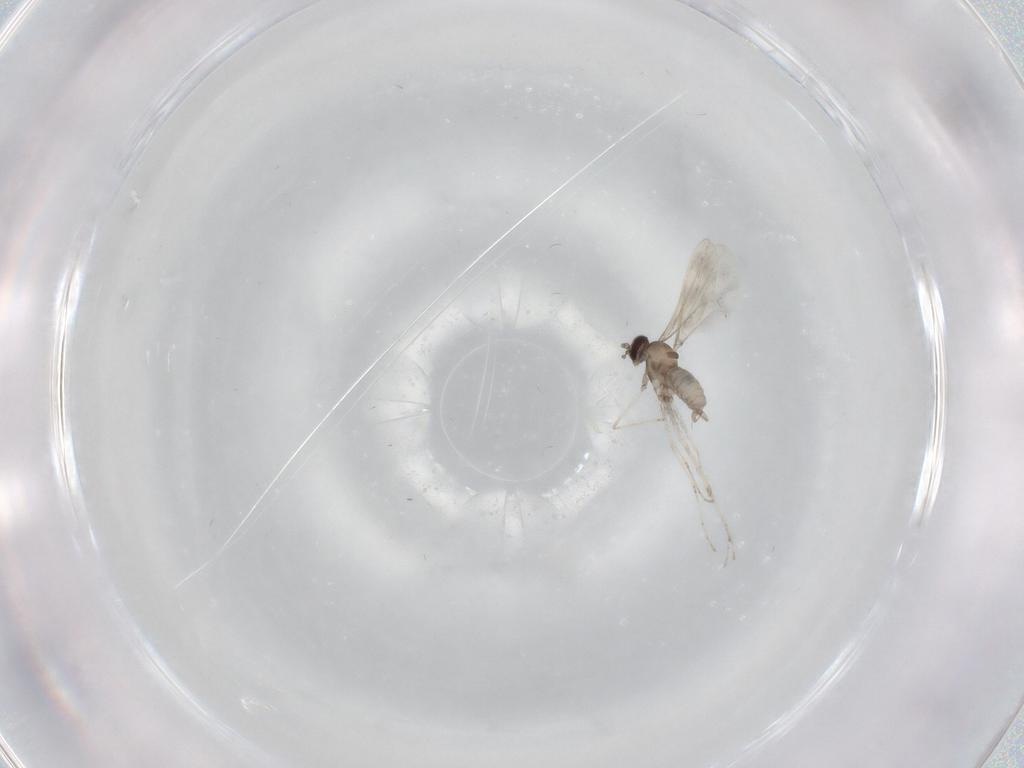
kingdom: Animalia
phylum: Arthropoda
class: Insecta
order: Diptera
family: Cecidomyiidae
